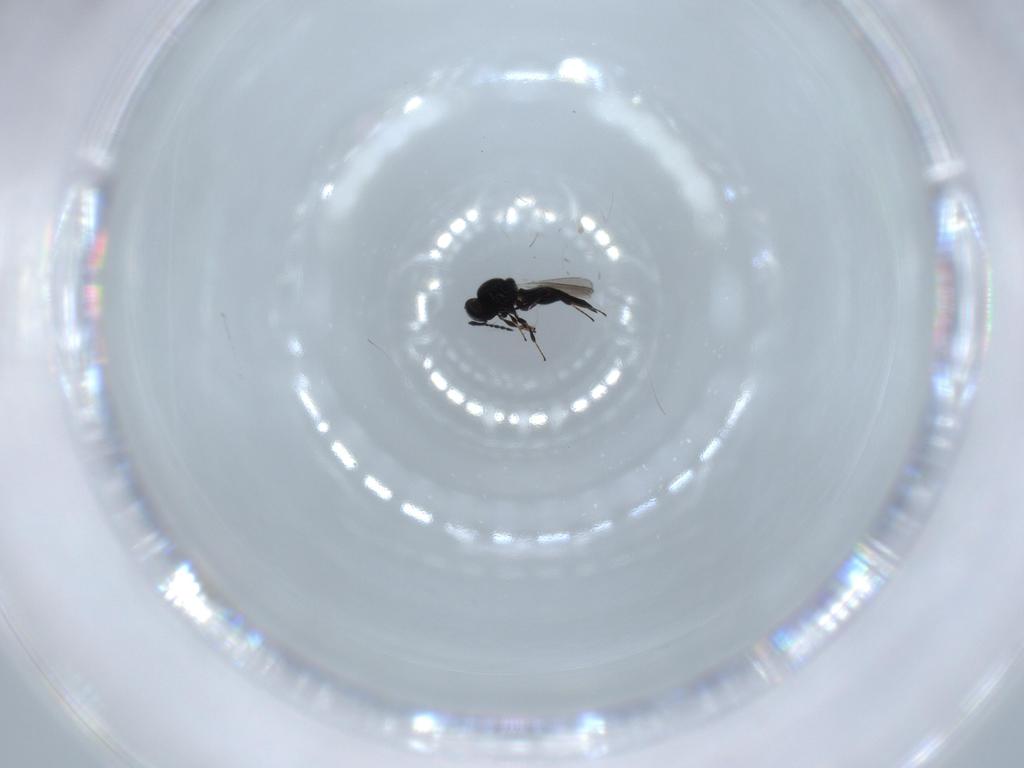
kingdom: Animalia
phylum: Arthropoda
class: Insecta
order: Hymenoptera
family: Platygastridae
